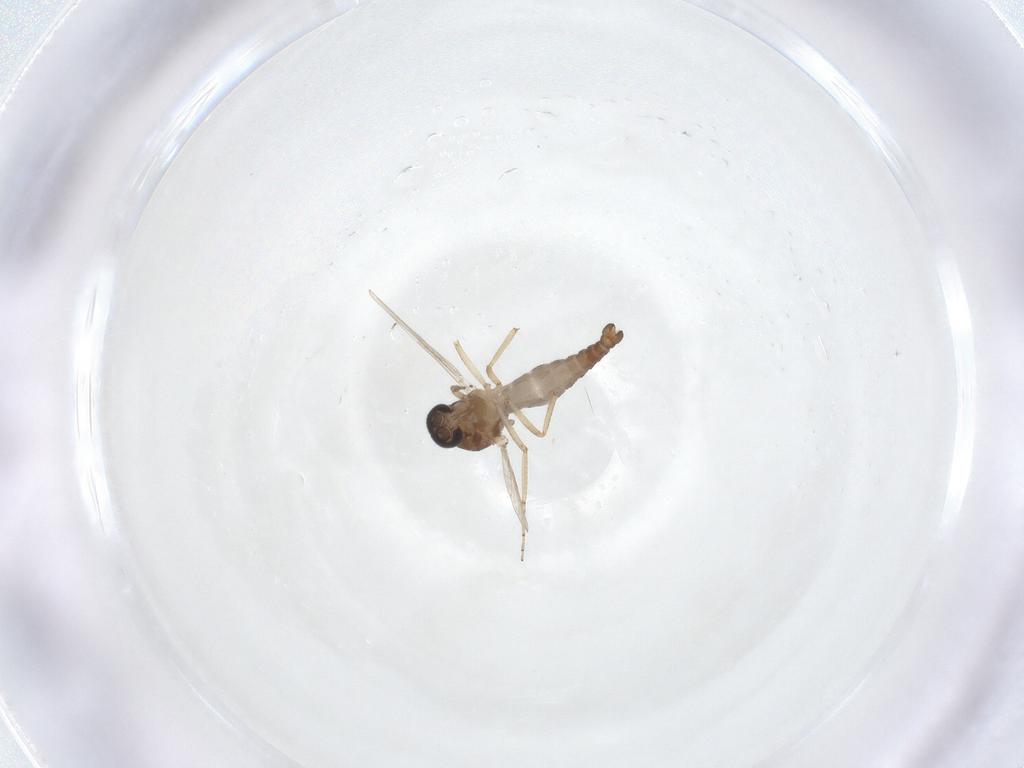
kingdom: Animalia
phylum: Arthropoda
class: Insecta
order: Diptera
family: Ceratopogonidae
